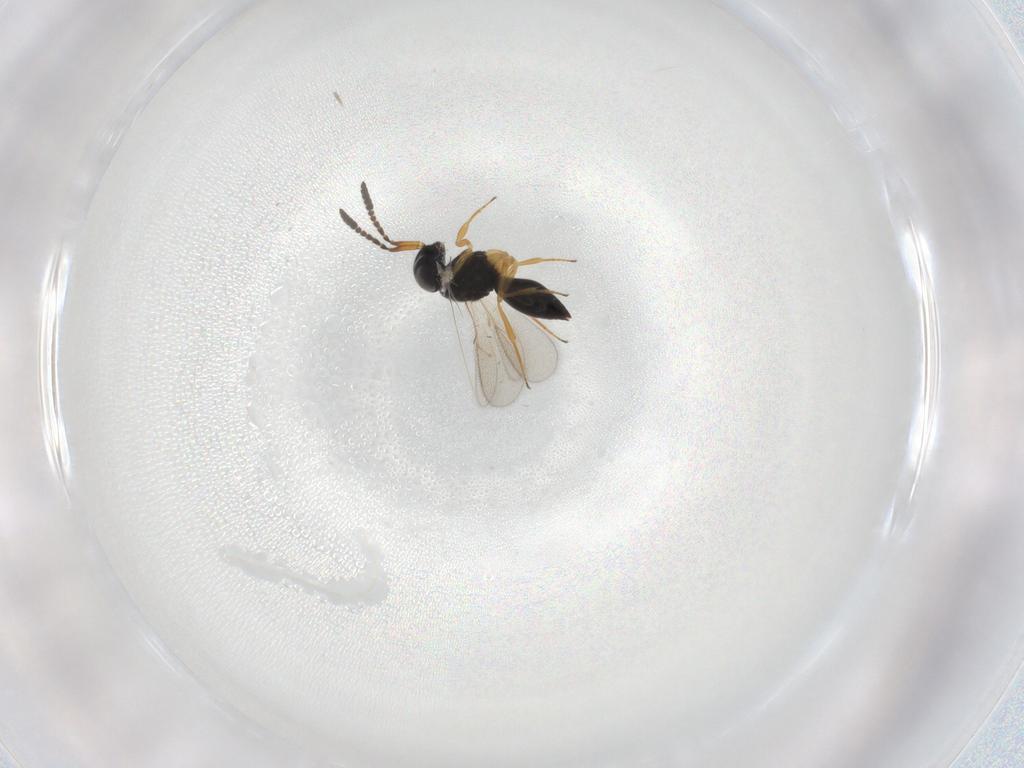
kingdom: Animalia
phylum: Arthropoda
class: Insecta
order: Hymenoptera
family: Scelionidae
